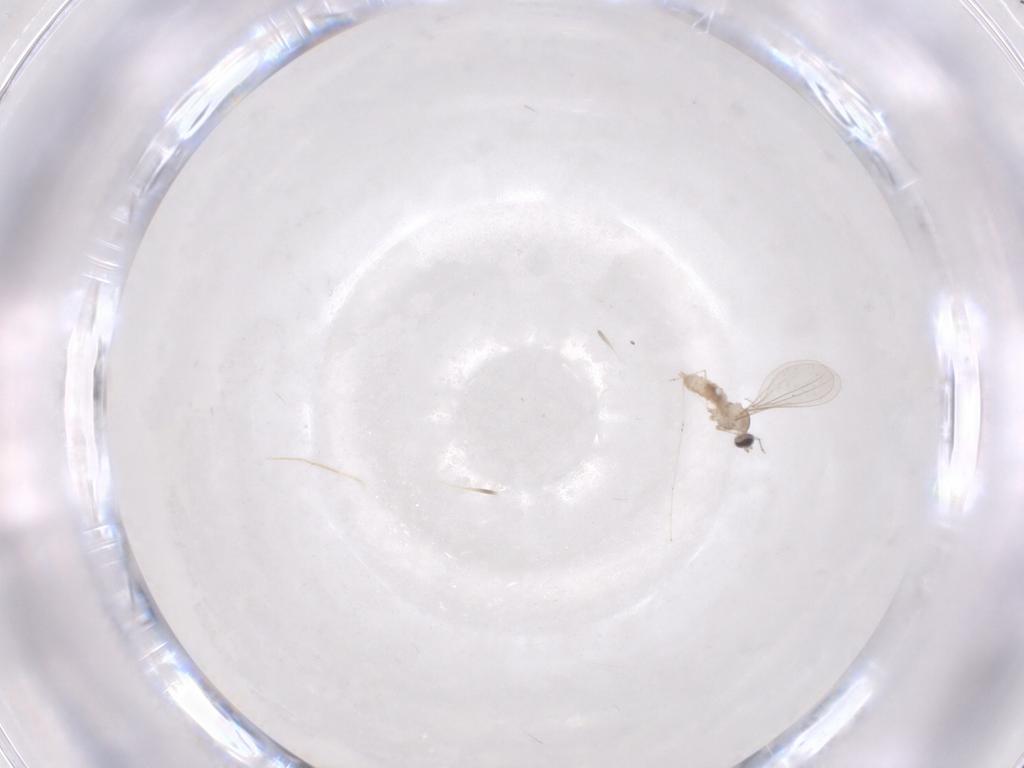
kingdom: Animalia
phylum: Arthropoda
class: Insecta
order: Diptera
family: Cecidomyiidae
